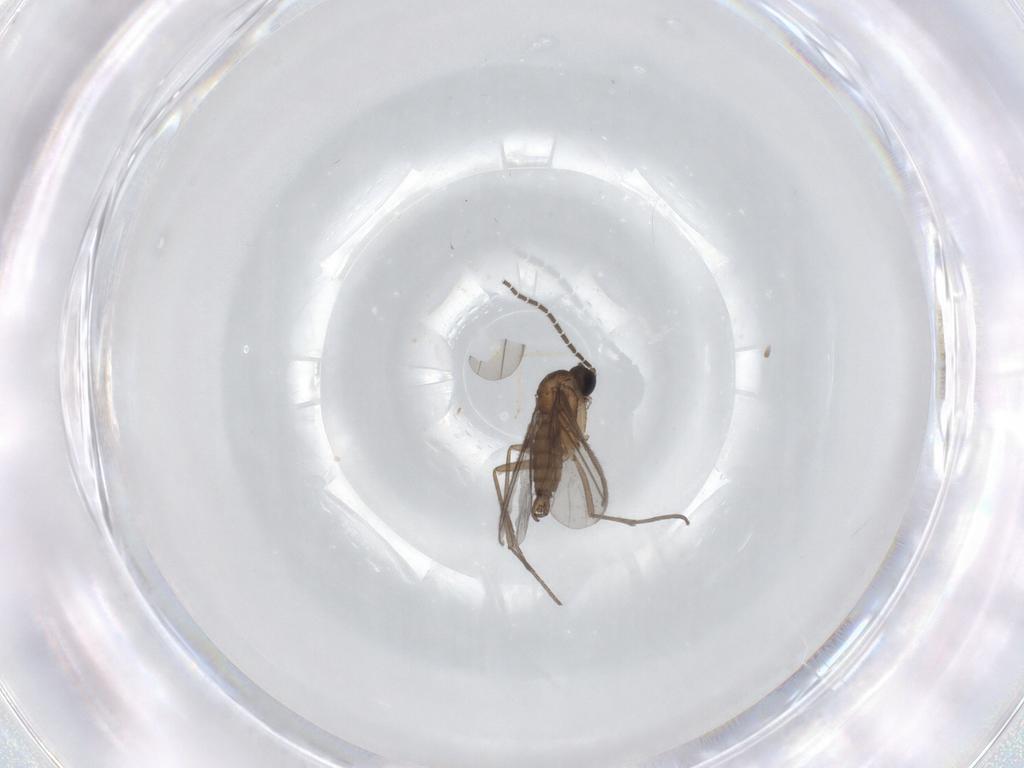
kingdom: Animalia
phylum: Arthropoda
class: Insecta
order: Diptera
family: Sciaridae
